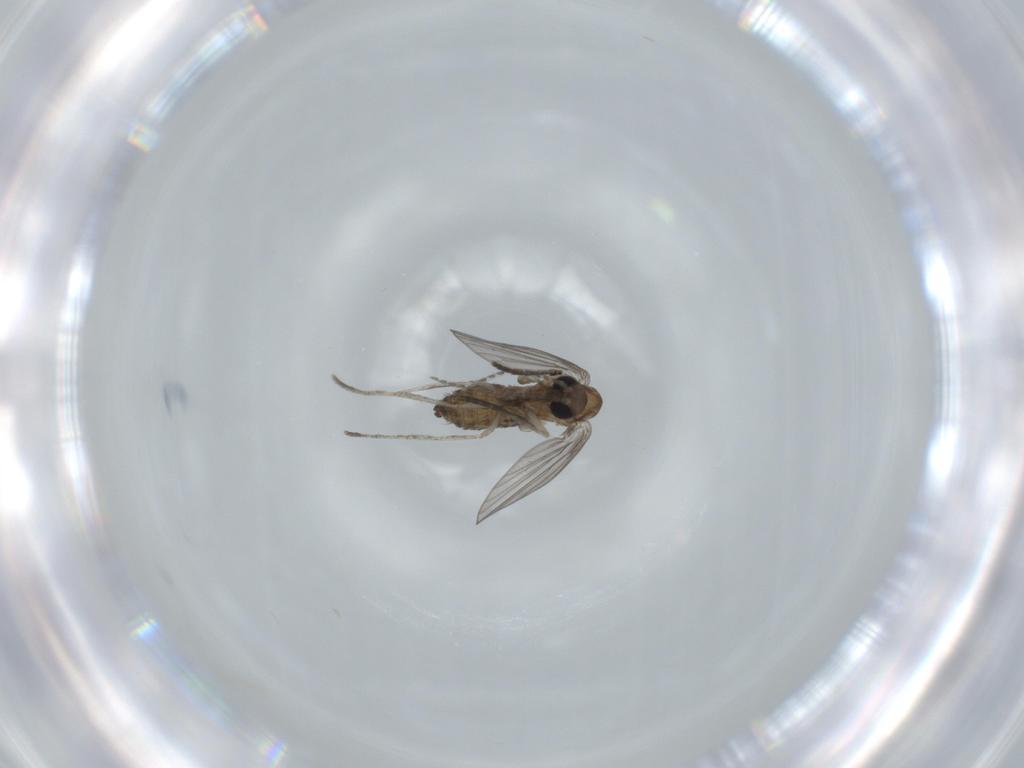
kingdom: Animalia
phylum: Arthropoda
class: Insecta
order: Diptera
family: Psychodidae
